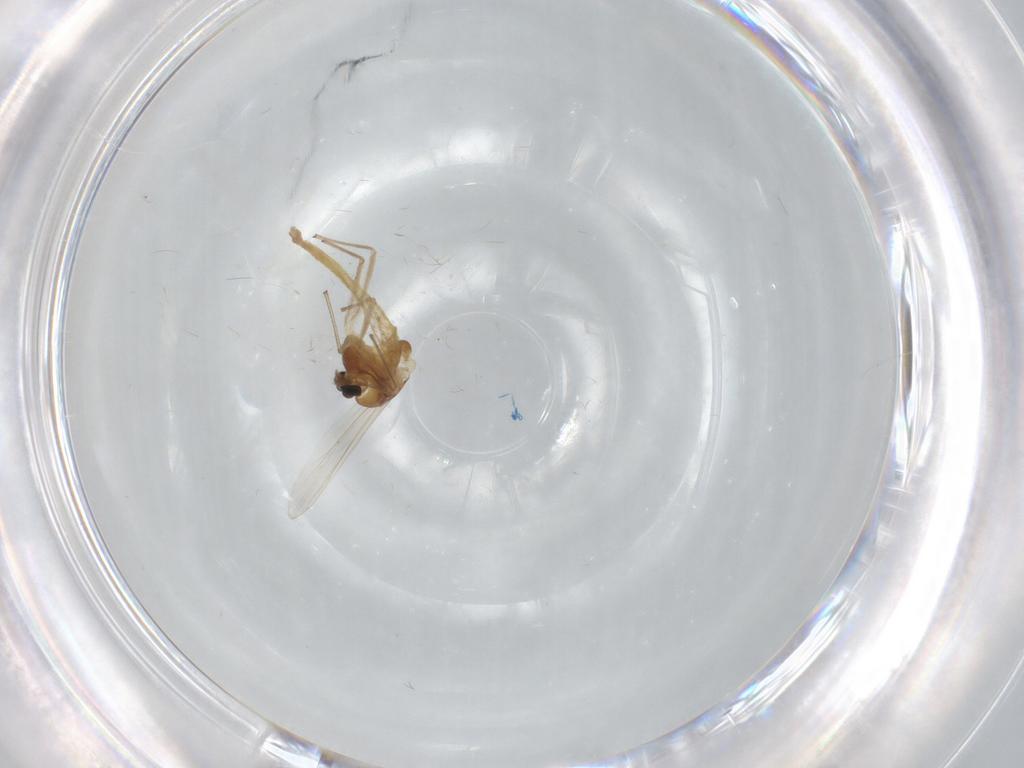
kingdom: Animalia
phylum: Arthropoda
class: Insecta
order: Diptera
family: Chironomidae
